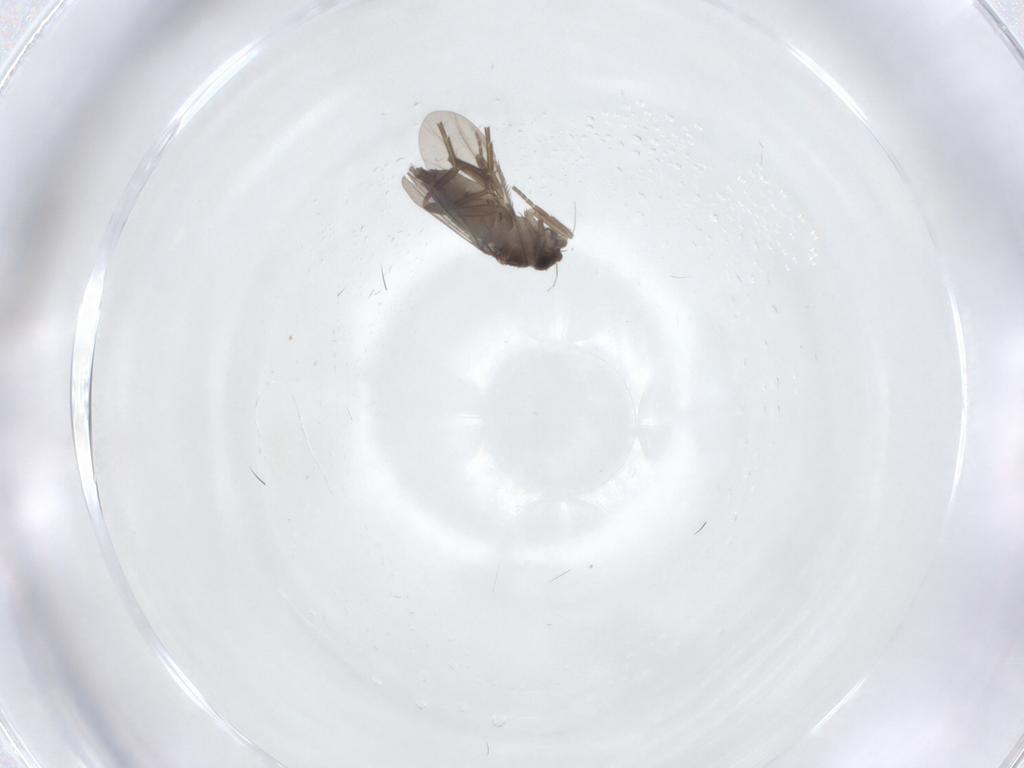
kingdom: Animalia
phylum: Arthropoda
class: Insecta
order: Diptera
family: Phoridae
